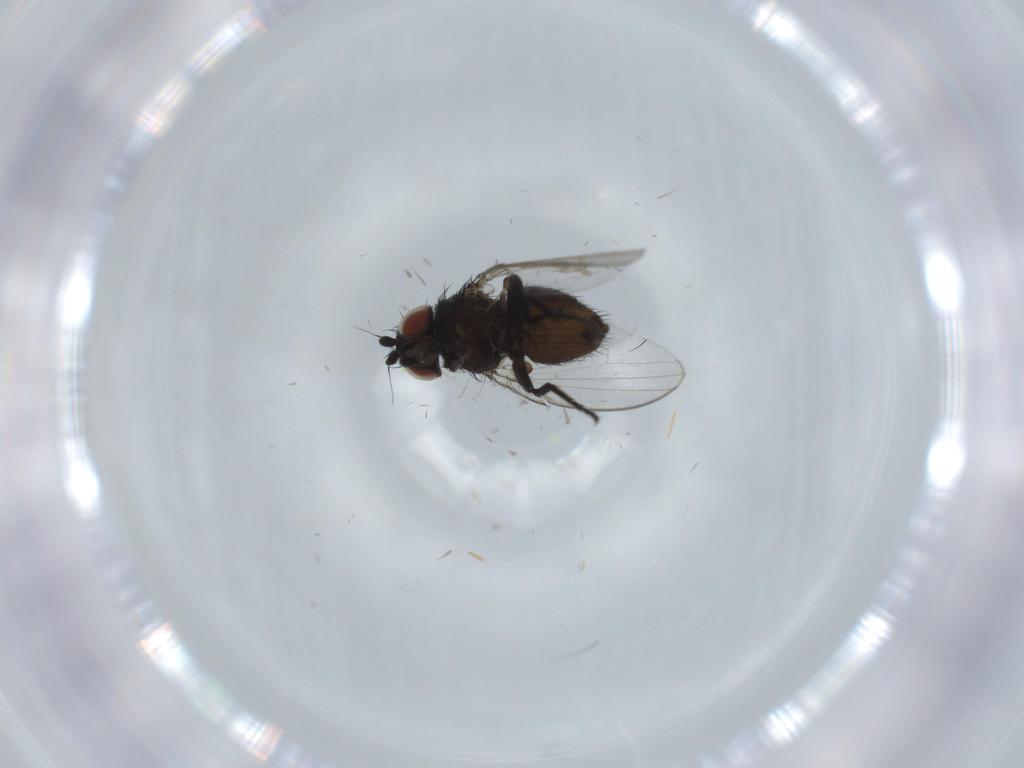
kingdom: Animalia
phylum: Arthropoda
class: Insecta
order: Diptera
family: Milichiidae
